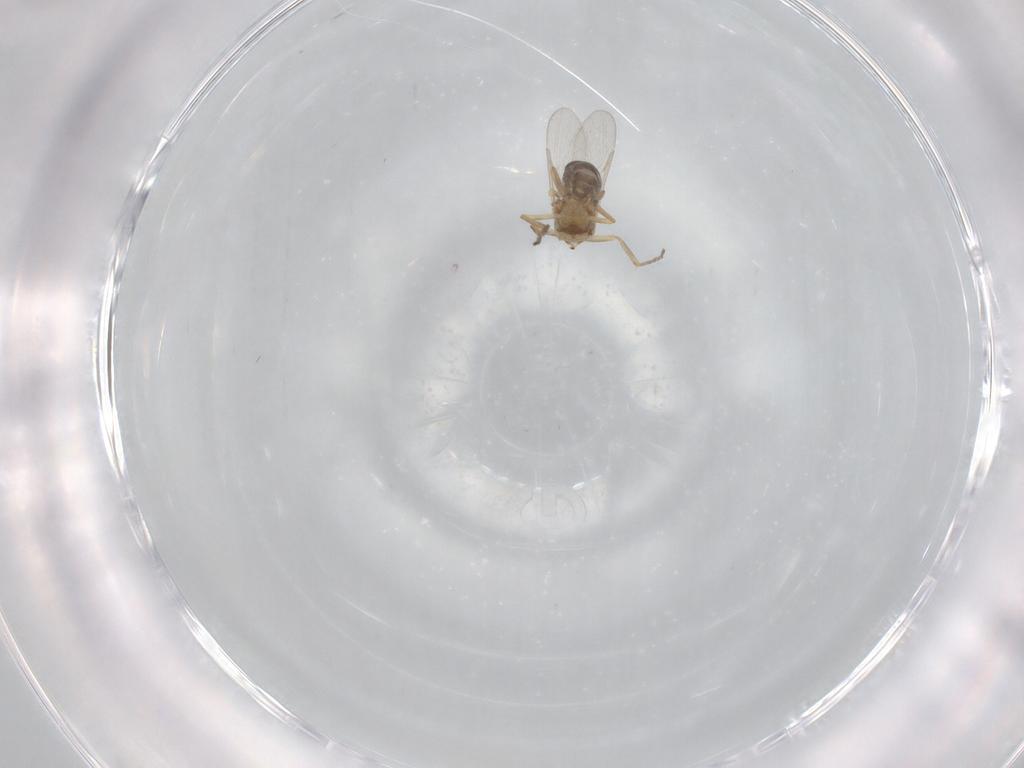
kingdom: Animalia
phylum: Arthropoda
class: Insecta
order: Diptera
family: Ceratopogonidae
